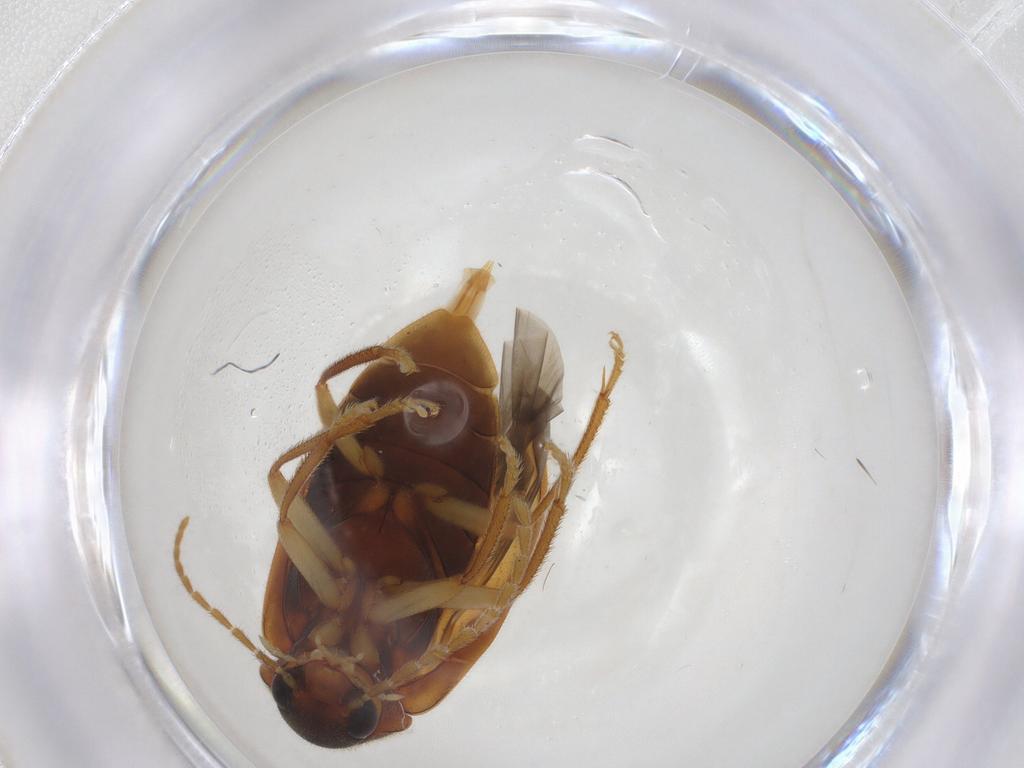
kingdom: Animalia
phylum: Arthropoda
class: Insecta
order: Coleoptera
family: Ptilodactylidae
